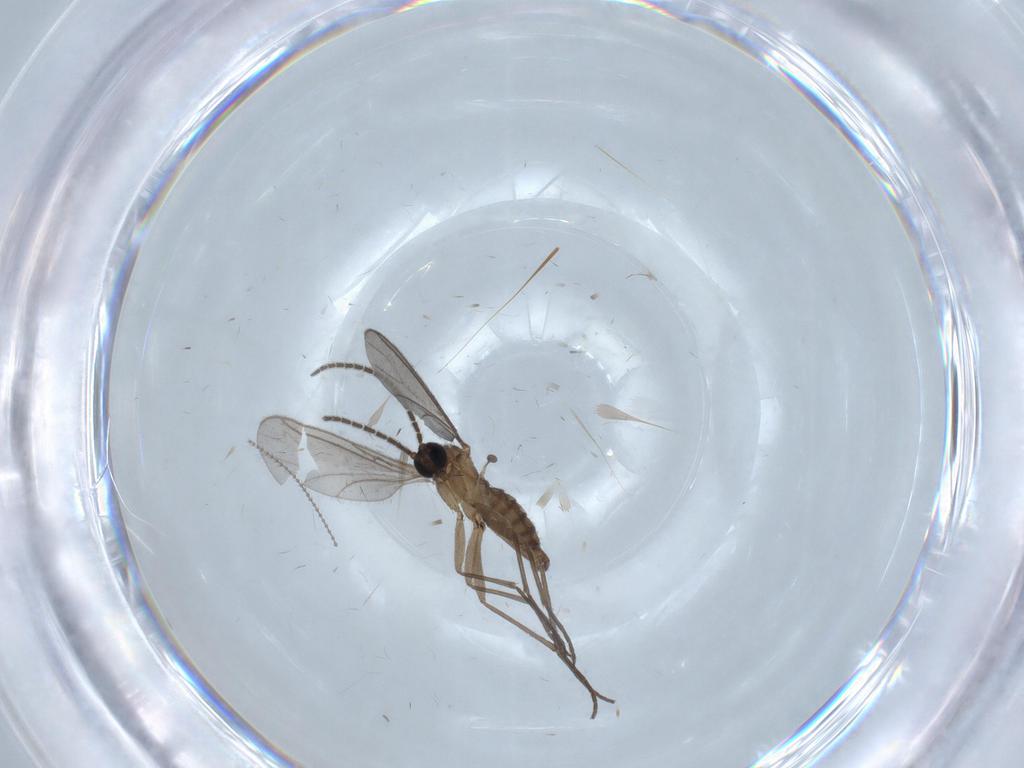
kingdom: Animalia
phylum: Arthropoda
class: Insecta
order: Diptera
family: Sciaridae
